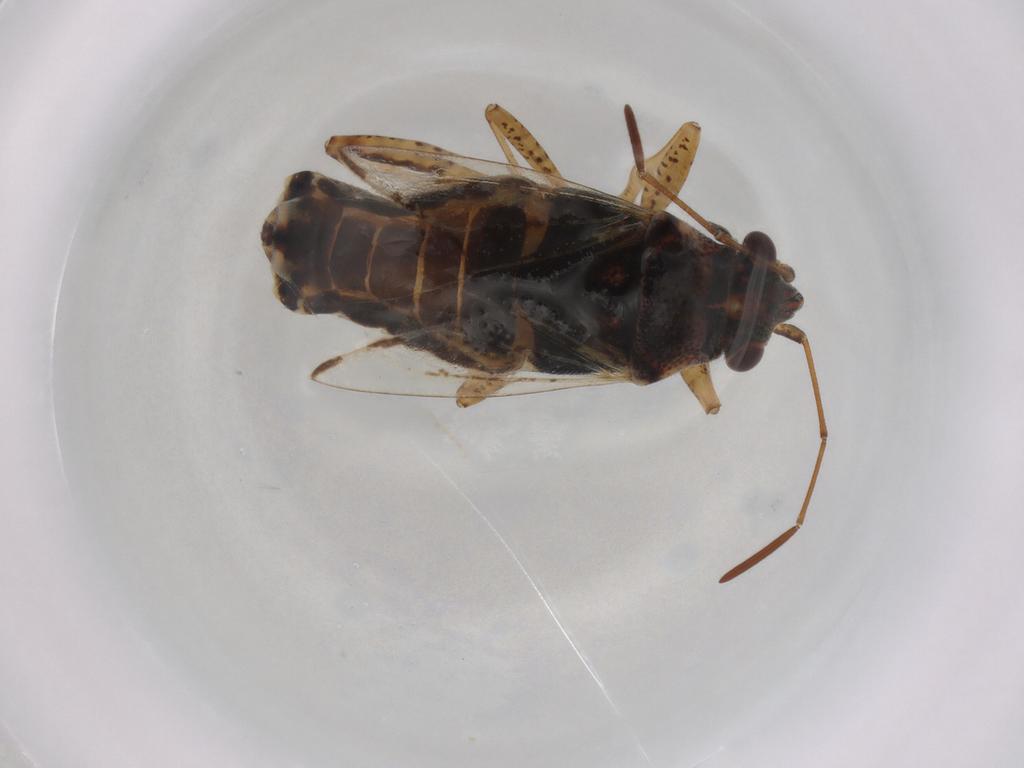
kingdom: Animalia
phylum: Arthropoda
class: Insecta
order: Hemiptera
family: Lygaeidae
